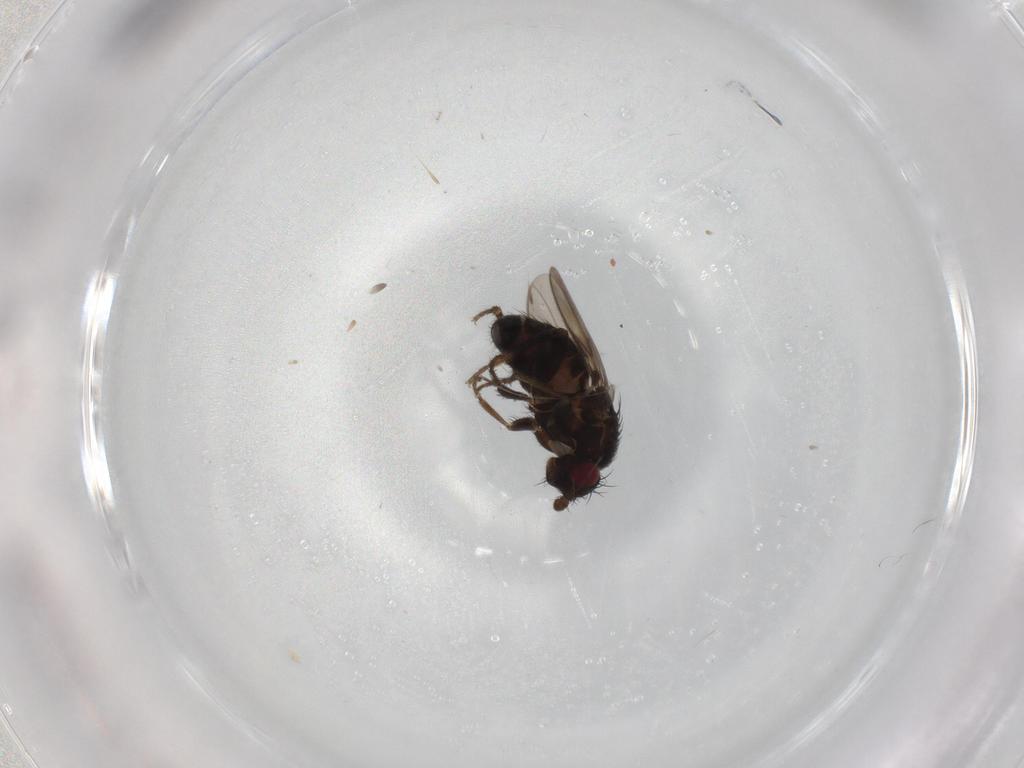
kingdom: Animalia
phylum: Arthropoda
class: Insecta
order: Diptera
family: Sphaeroceridae
